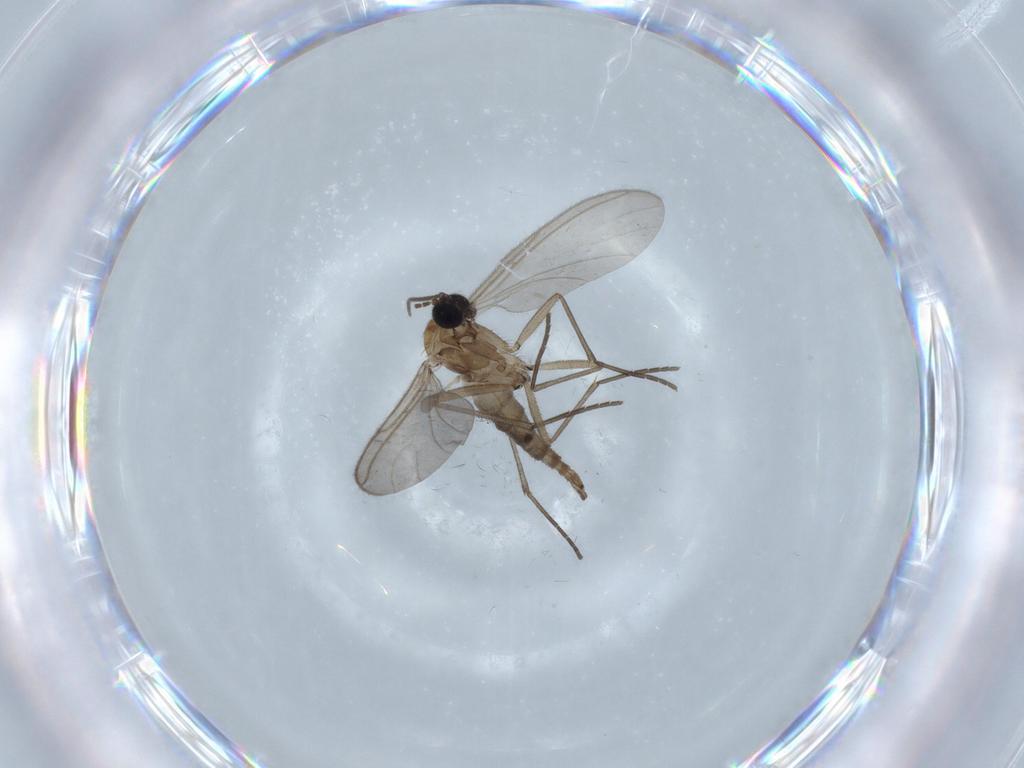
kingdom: Animalia
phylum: Arthropoda
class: Insecta
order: Diptera
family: Sciaridae
